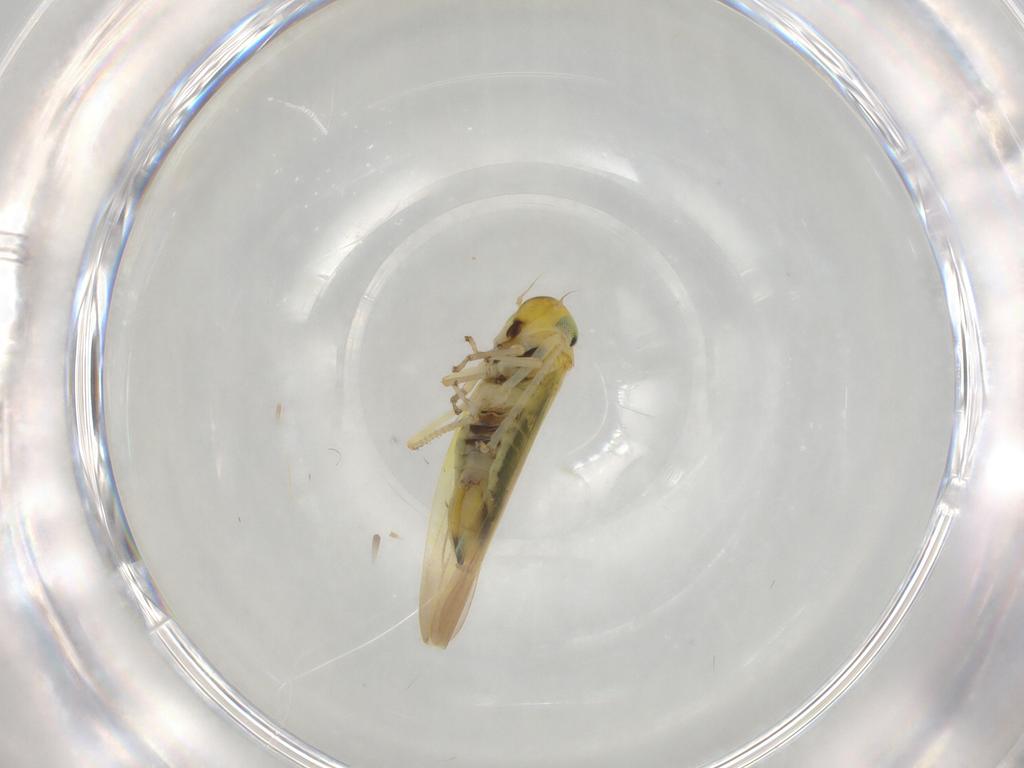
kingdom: Animalia
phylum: Arthropoda
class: Insecta
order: Hemiptera
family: Cicadellidae
